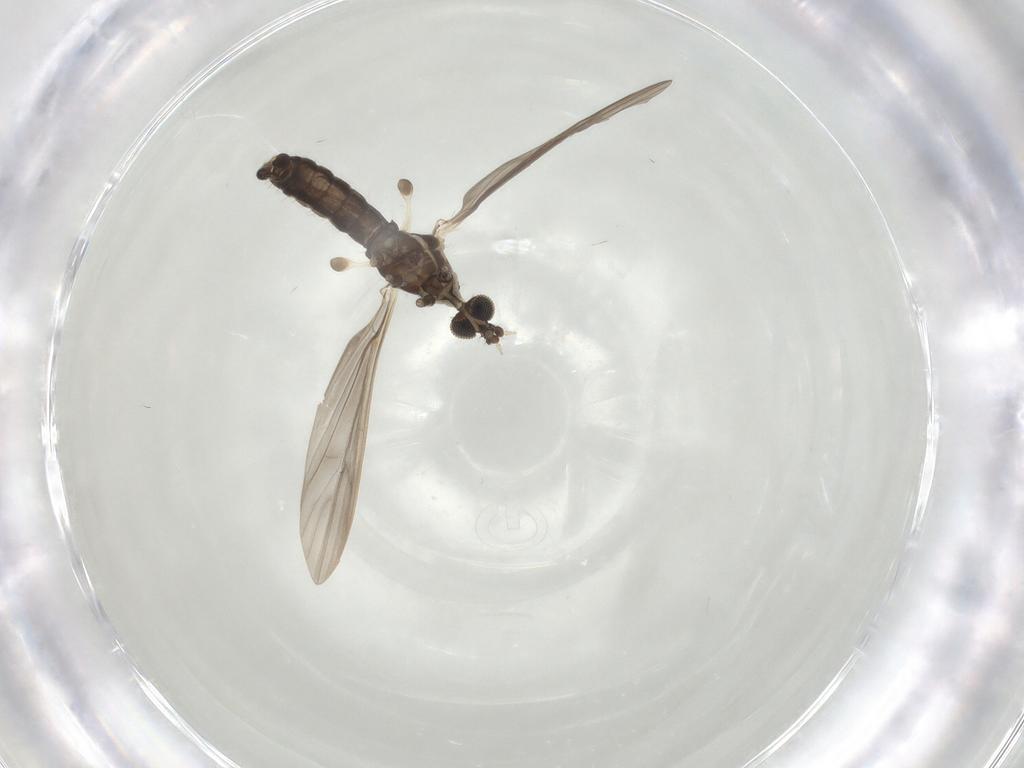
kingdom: Animalia
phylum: Arthropoda
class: Insecta
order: Diptera
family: Limoniidae
